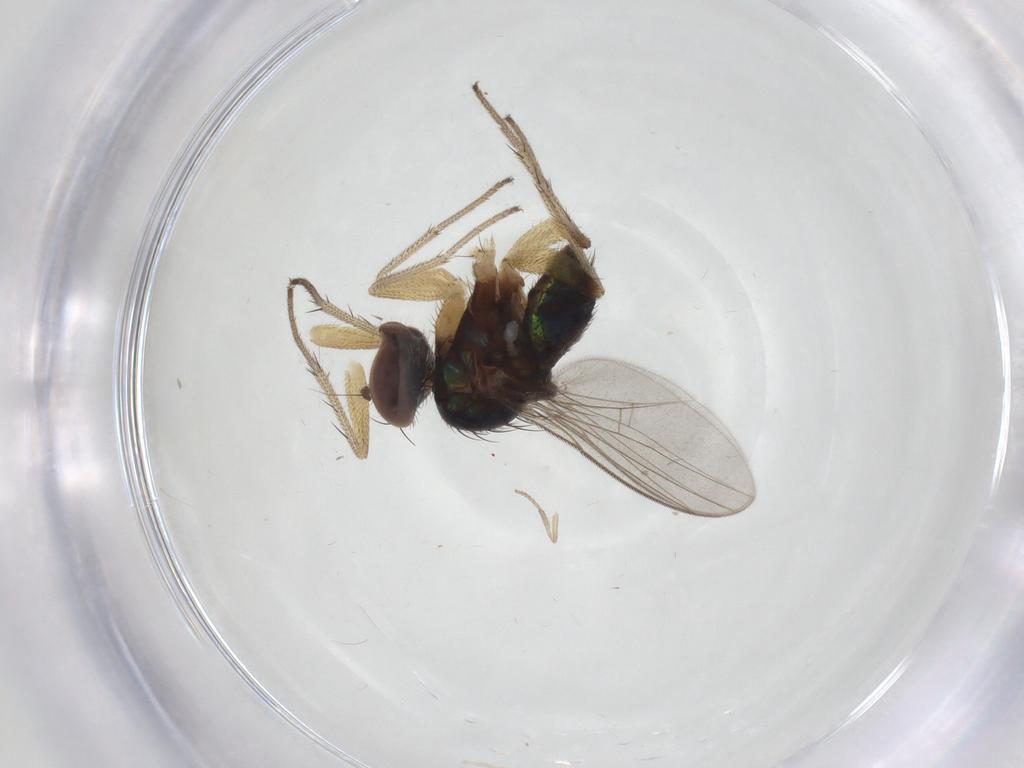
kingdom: Animalia
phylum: Arthropoda
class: Insecta
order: Diptera
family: Dolichopodidae
